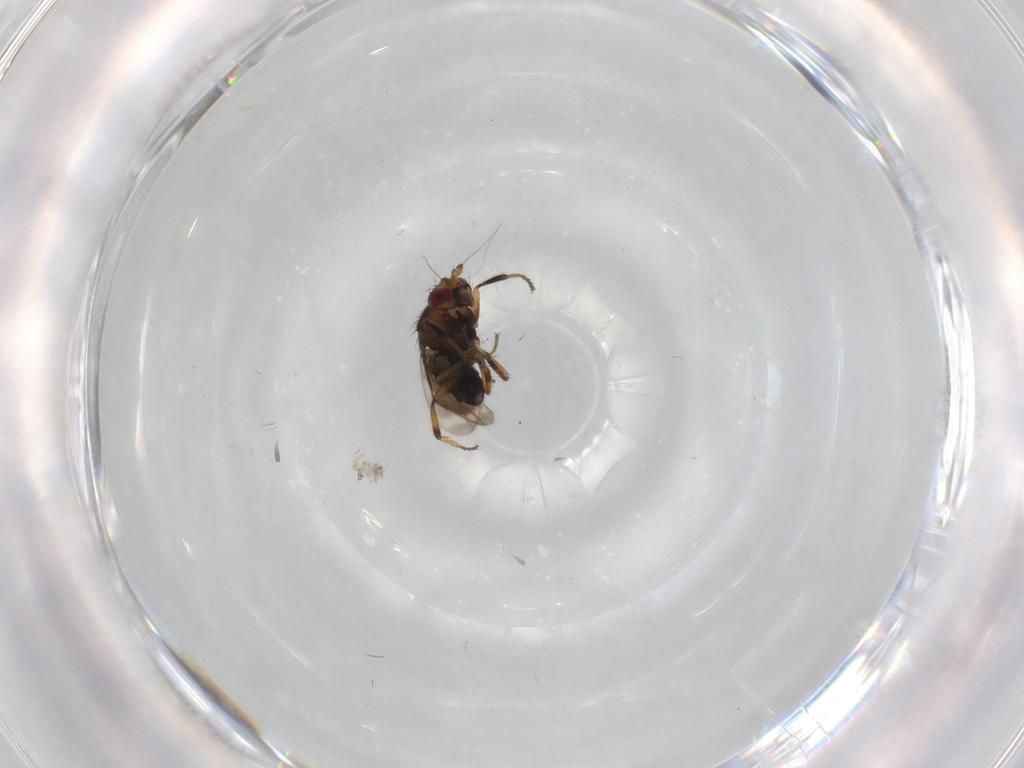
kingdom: Animalia
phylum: Arthropoda
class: Insecta
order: Diptera
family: Sphaeroceridae
